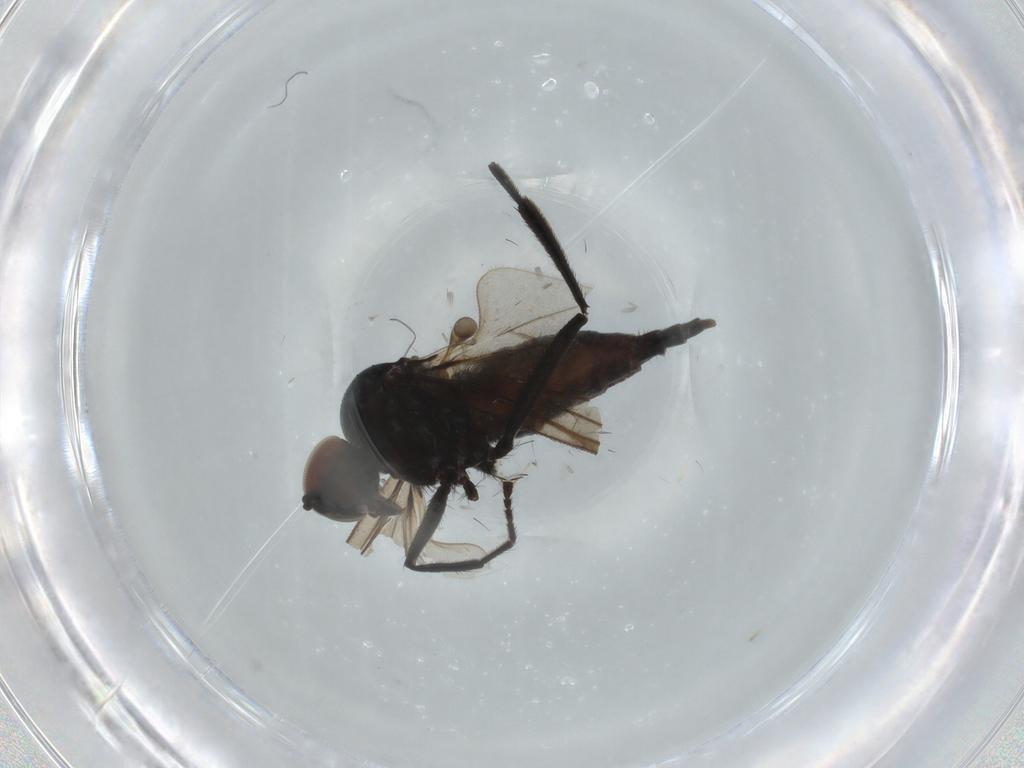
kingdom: Animalia
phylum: Arthropoda
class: Insecta
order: Diptera
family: Hybotidae
